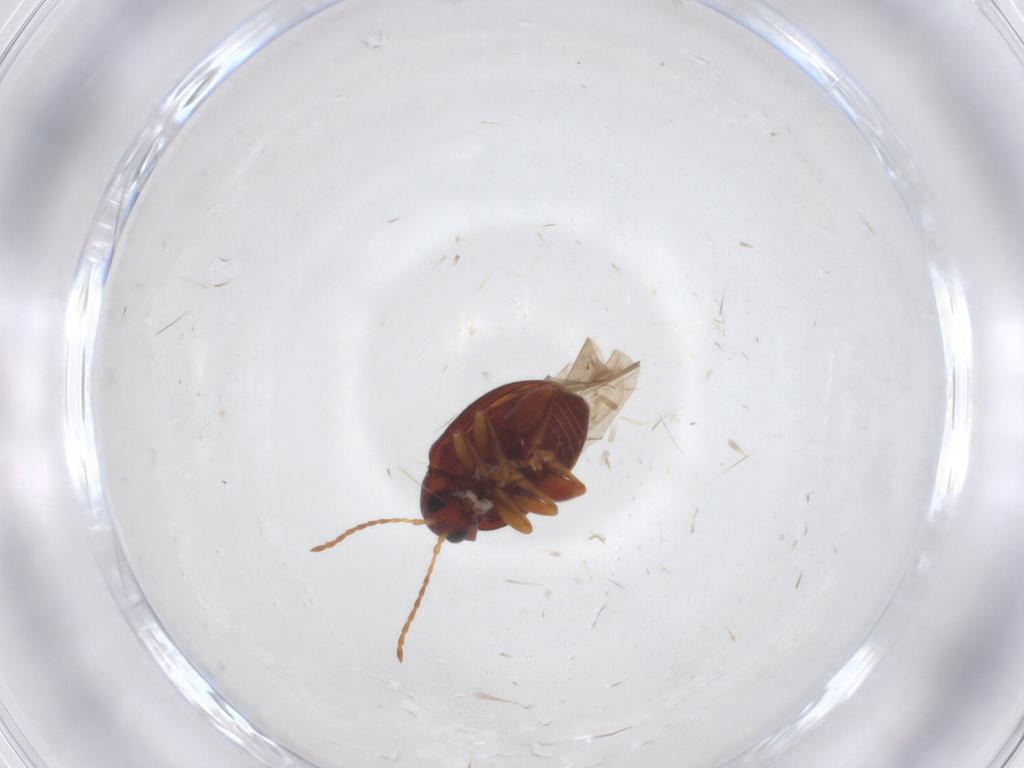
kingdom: Animalia
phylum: Arthropoda
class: Insecta
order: Coleoptera
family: Chrysomelidae
